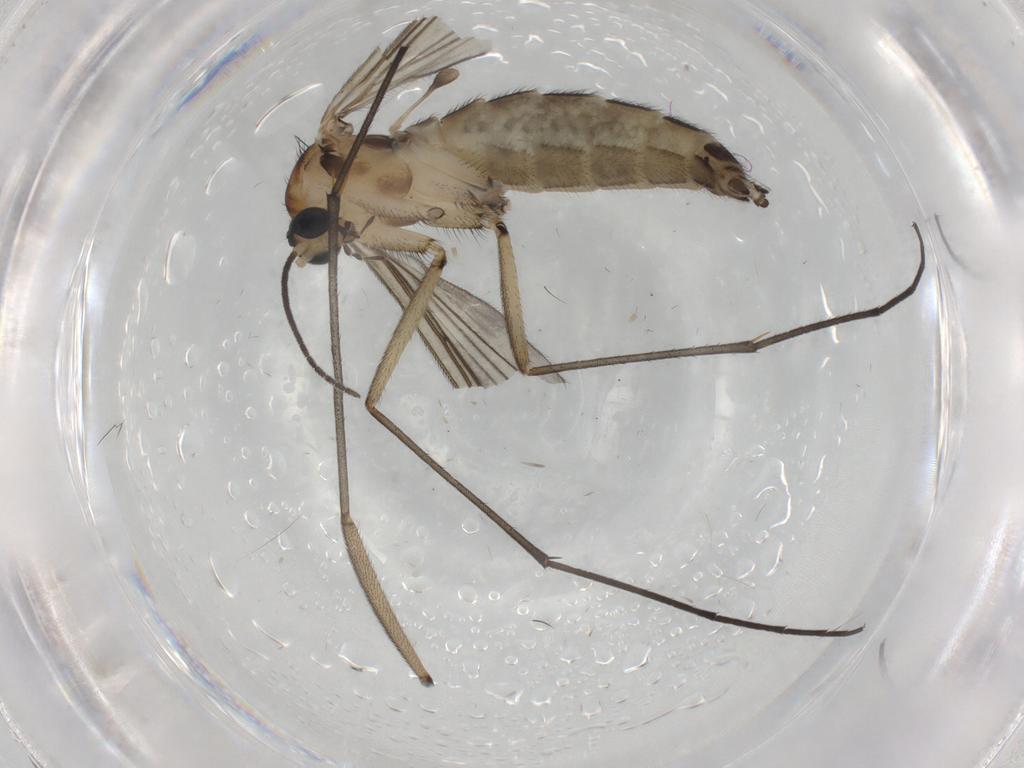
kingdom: Animalia
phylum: Arthropoda
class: Insecta
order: Diptera
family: Sciaridae
